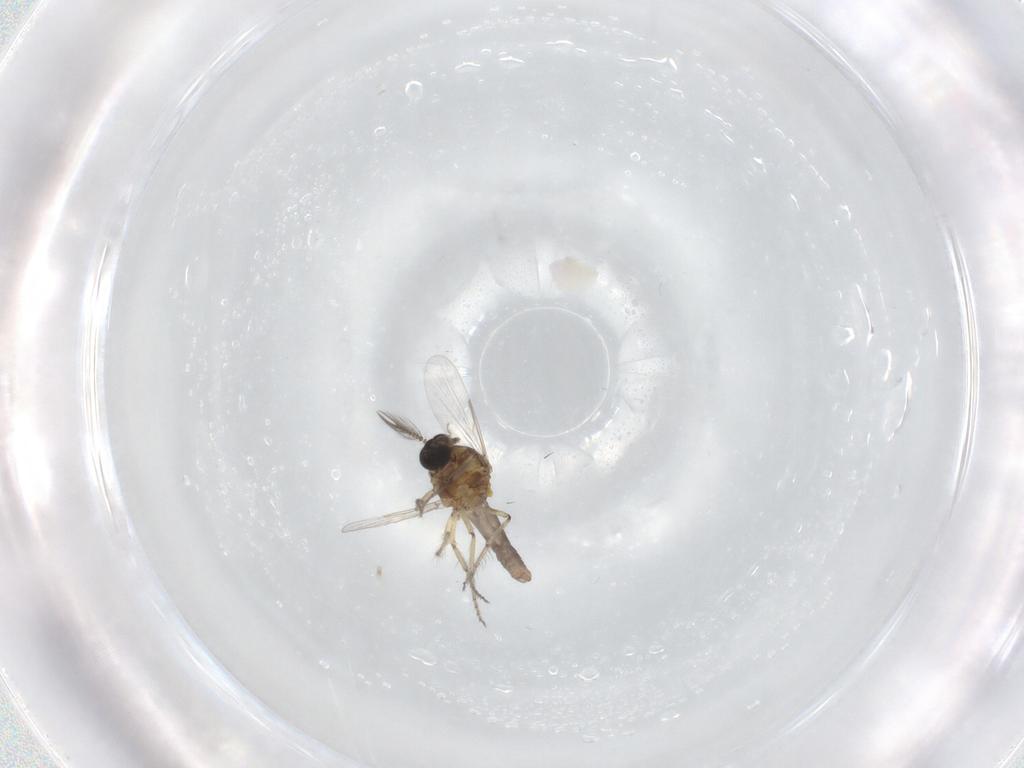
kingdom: Animalia
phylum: Arthropoda
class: Insecta
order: Diptera
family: Ceratopogonidae
